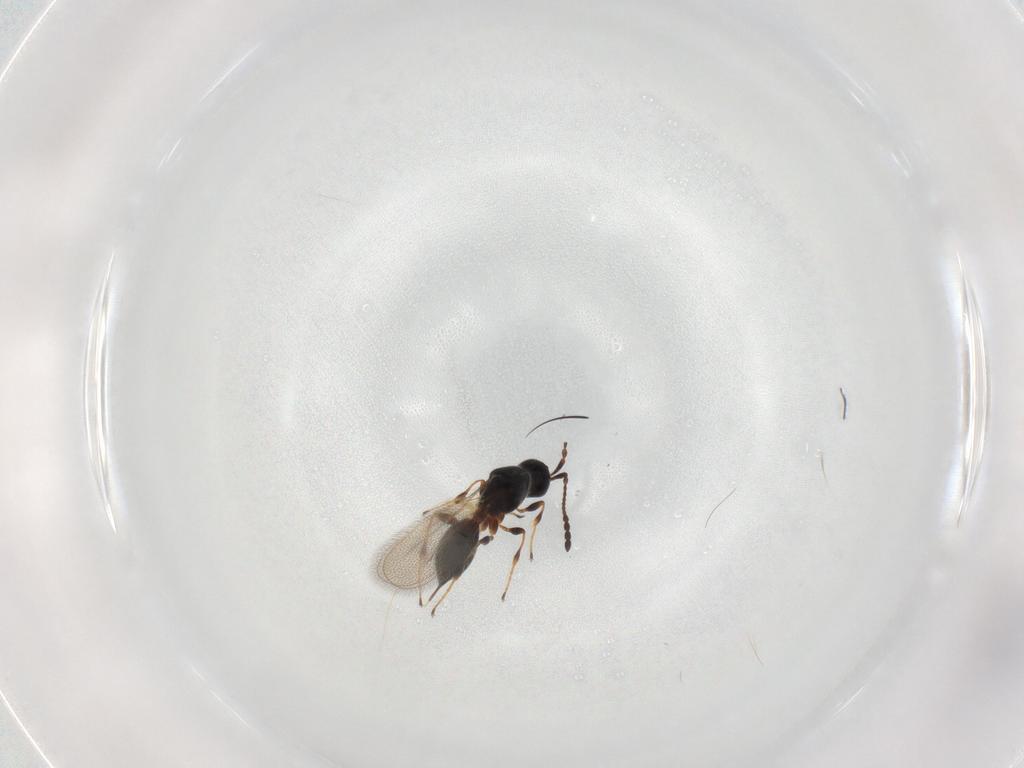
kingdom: Animalia
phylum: Arthropoda
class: Insecta
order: Hymenoptera
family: Diapriidae
